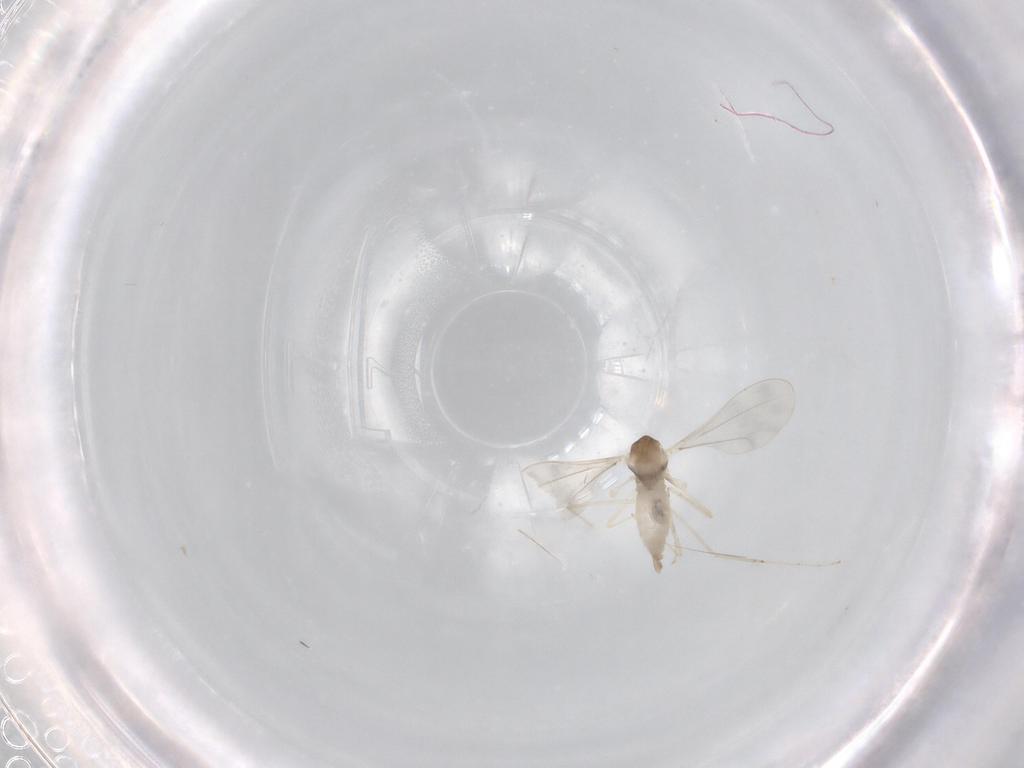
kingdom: Animalia
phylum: Arthropoda
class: Insecta
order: Diptera
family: Cecidomyiidae
